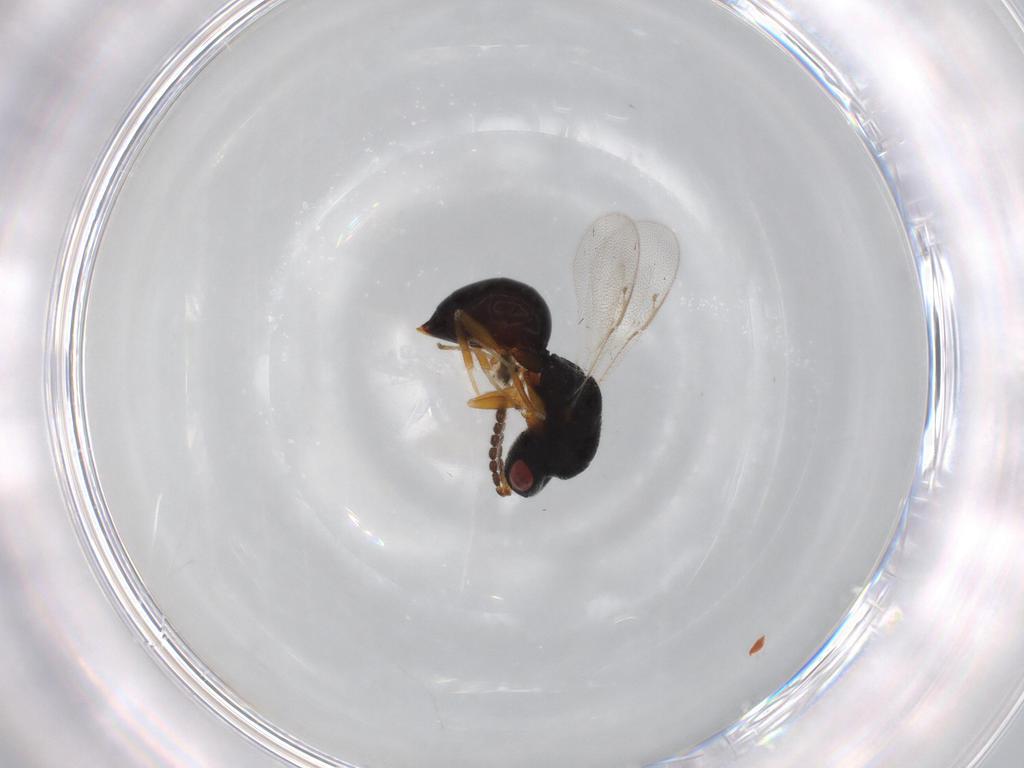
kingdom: Animalia
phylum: Arthropoda
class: Insecta
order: Hymenoptera
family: Eurytomidae
